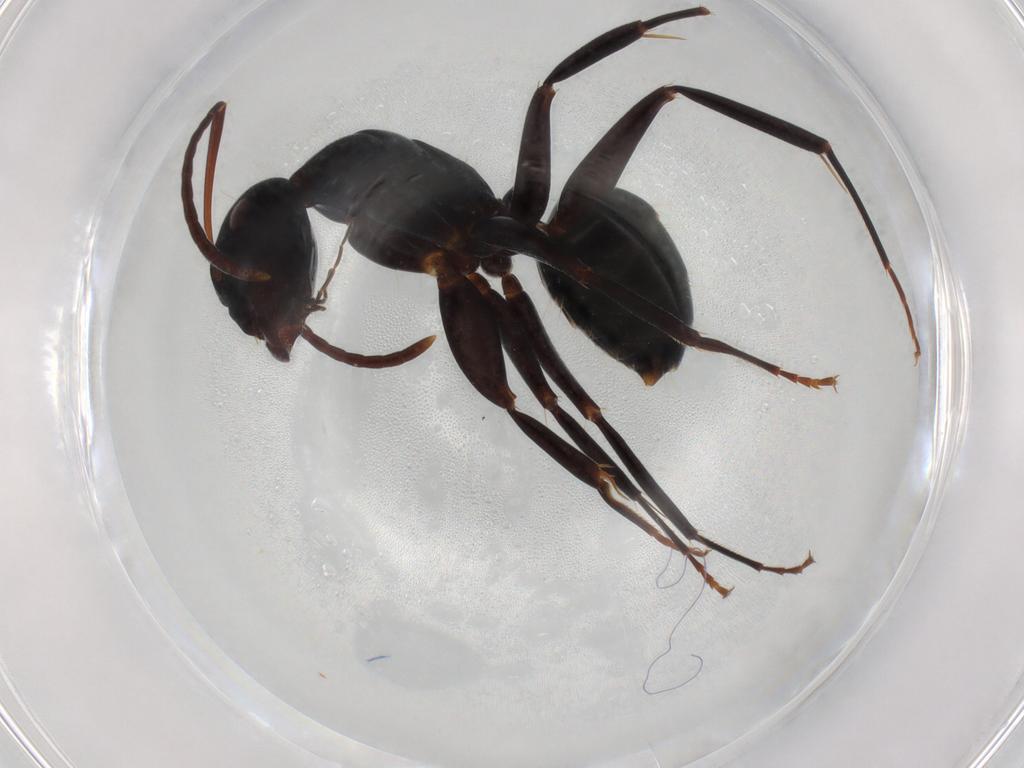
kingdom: Animalia
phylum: Arthropoda
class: Insecta
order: Hymenoptera
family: Formicidae
